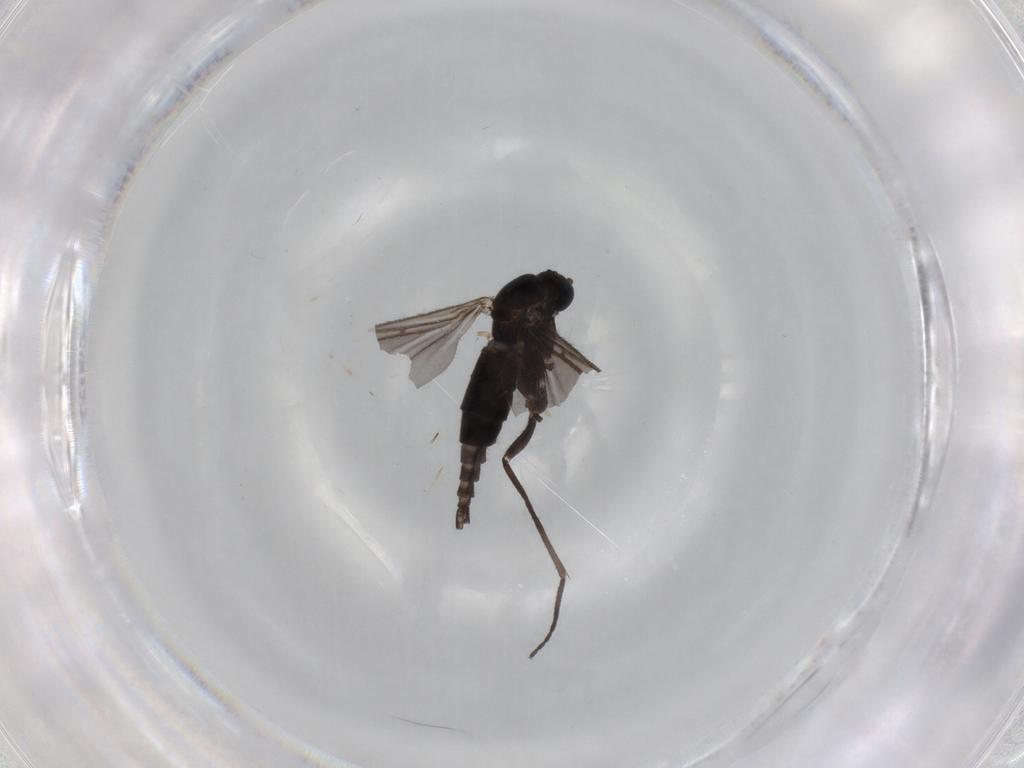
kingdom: Animalia
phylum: Arthropoda
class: Insecta
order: Diptera
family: Sciaridae
